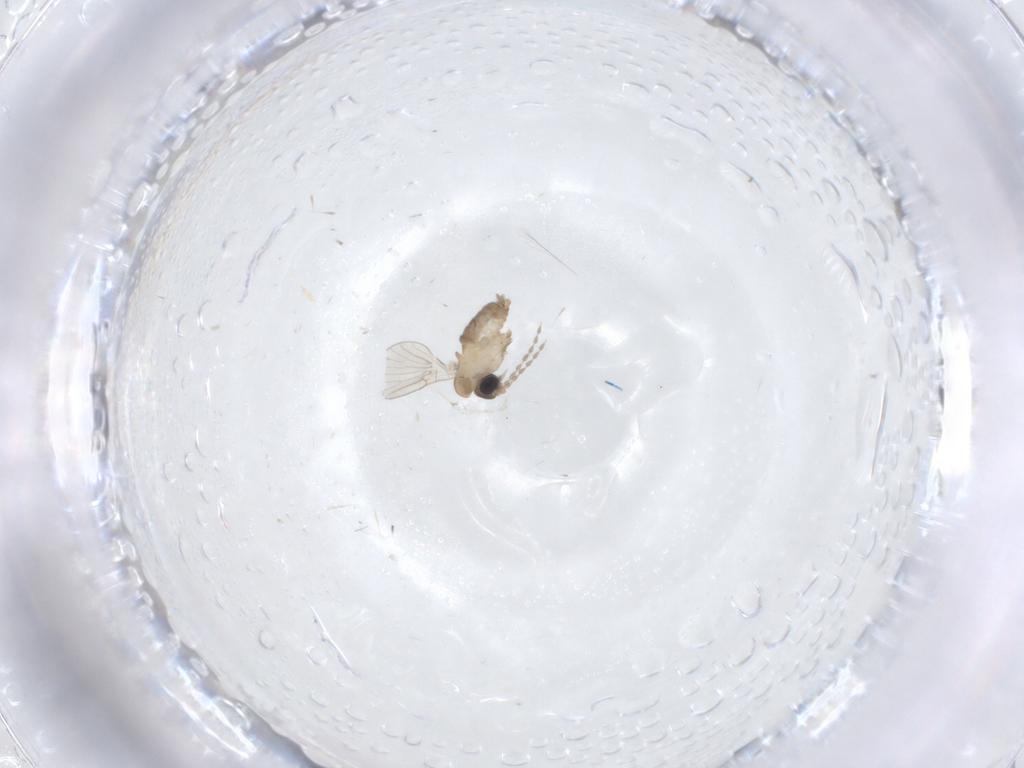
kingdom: Animalia
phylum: Arthropoda
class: Insecta
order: Diptera
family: Psychodidae
